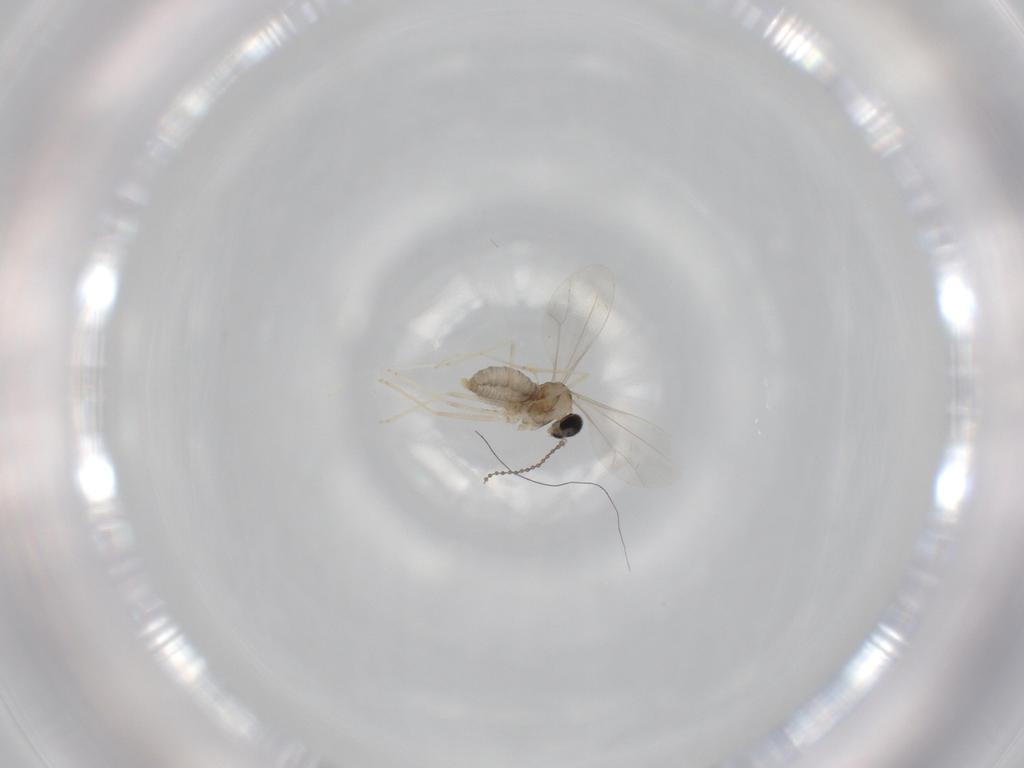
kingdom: Animalia
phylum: Arthropoda
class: Insecta
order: Diptera
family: Cecidomyiidae
